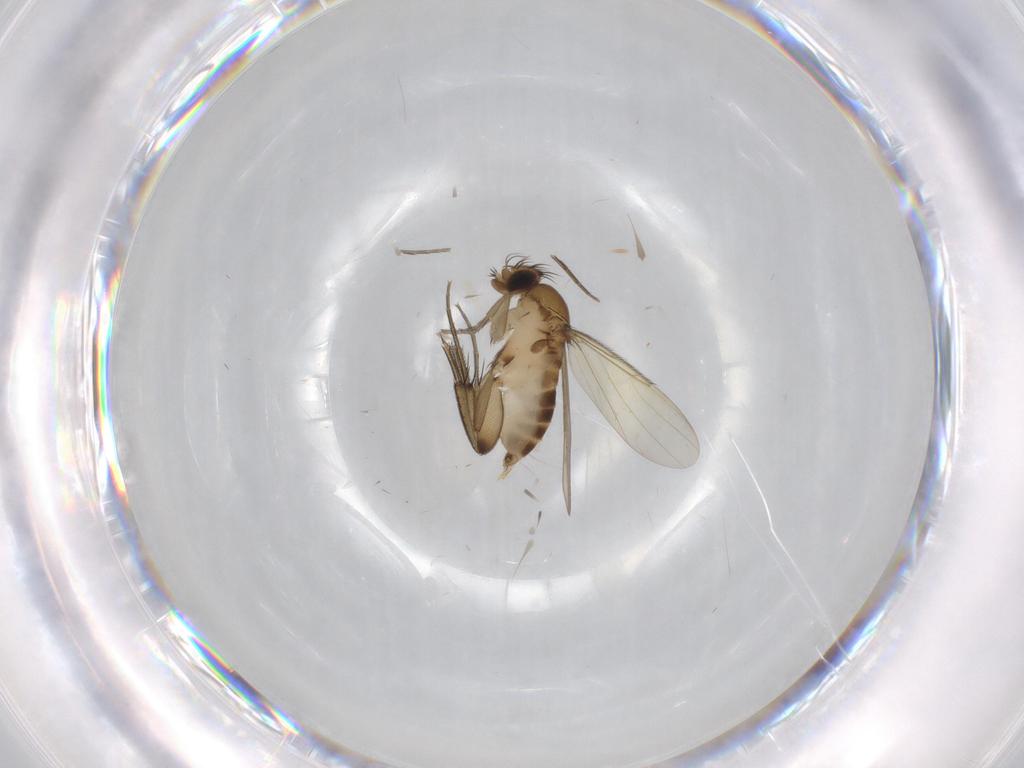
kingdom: Animalia
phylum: Arthropoda
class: Insecta
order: Diptera
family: Phoridae
